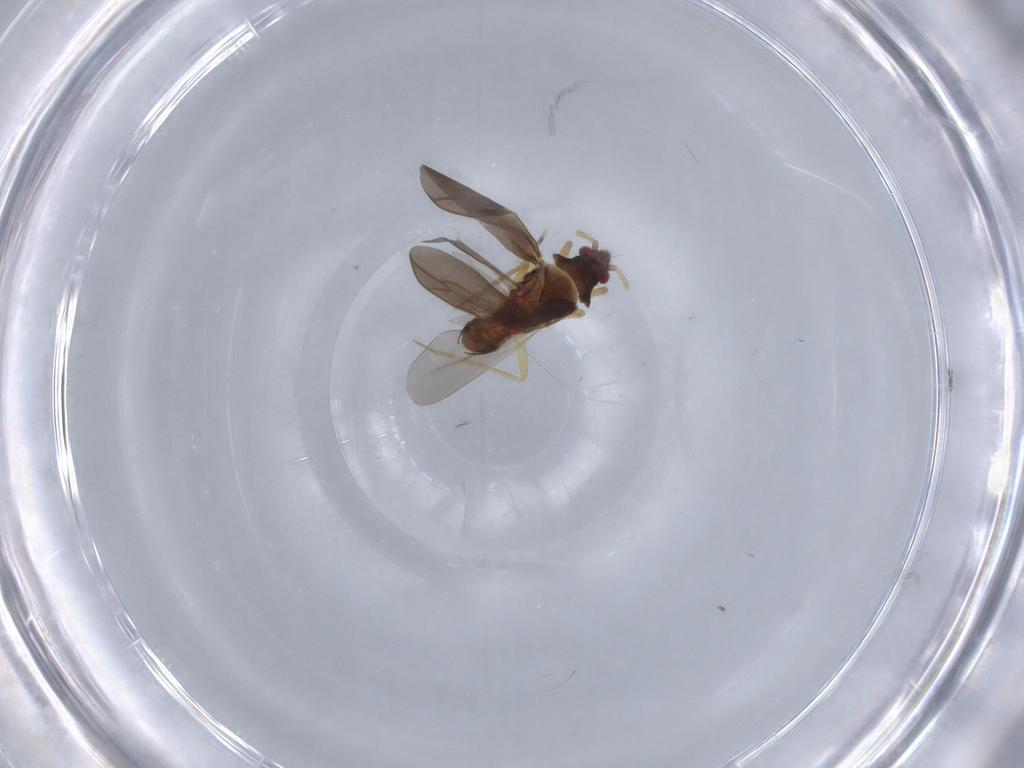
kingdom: Animalia
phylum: Arthropoda
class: Insecta
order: Hemiptera
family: Ceratocombidae
